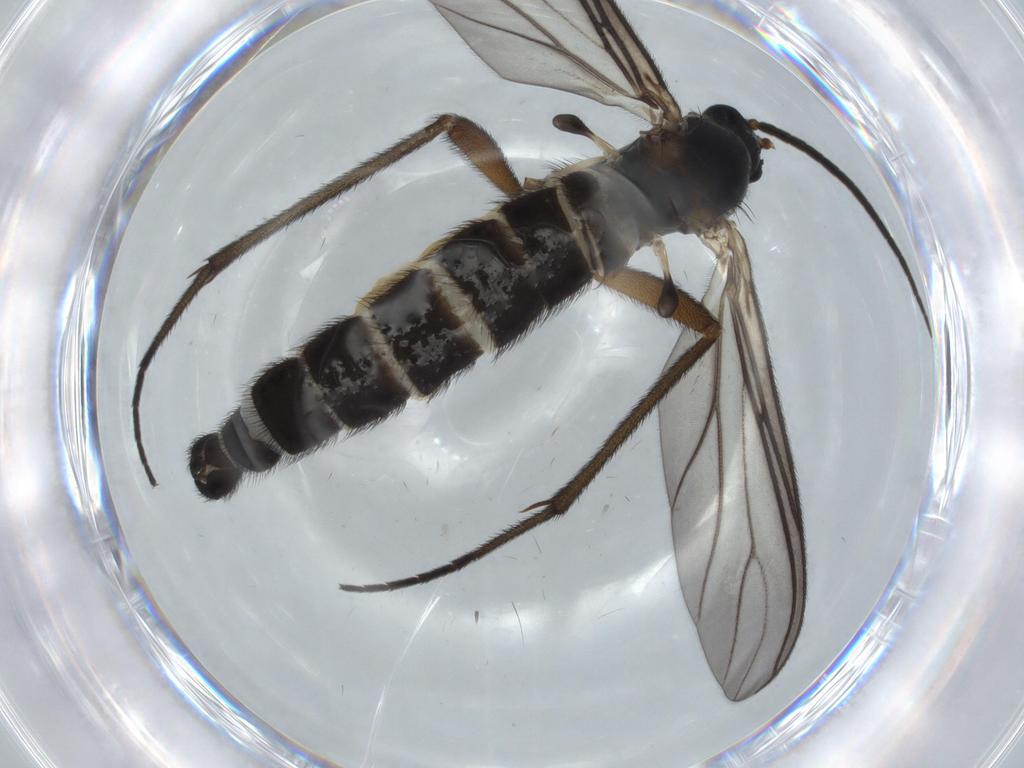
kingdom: Animalia
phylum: Arthropoda
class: Insecta
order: Diptera
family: Sciaridae
